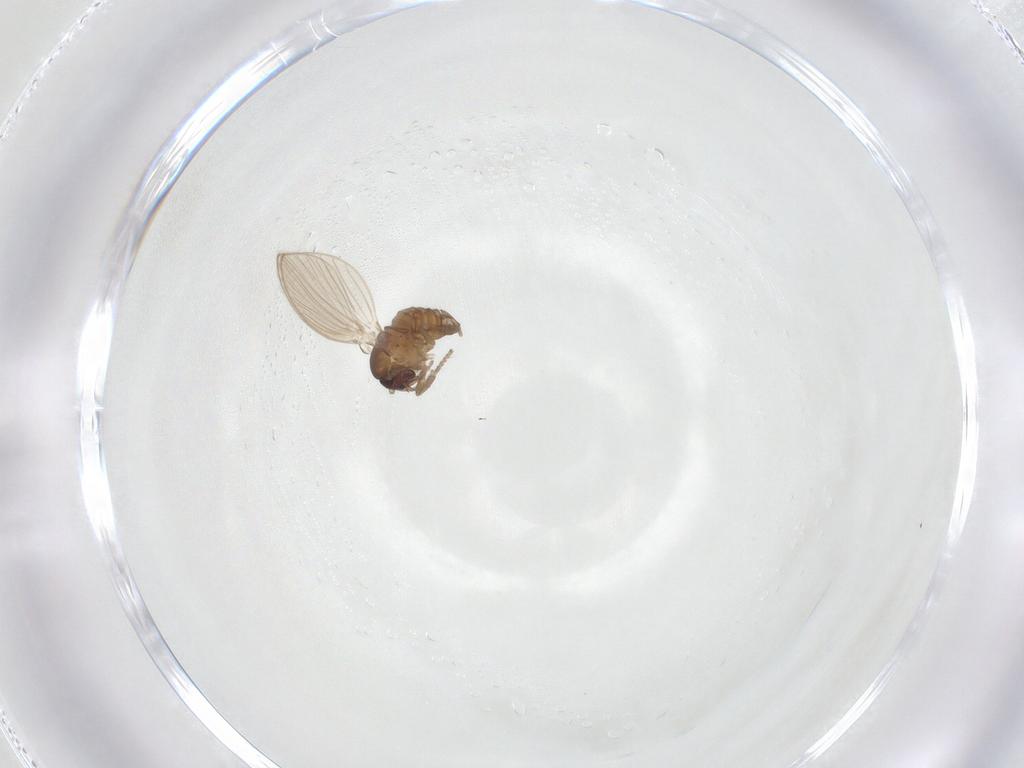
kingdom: Animalia
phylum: Arthropoda
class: Insecta
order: Diptera
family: Psychodidae
